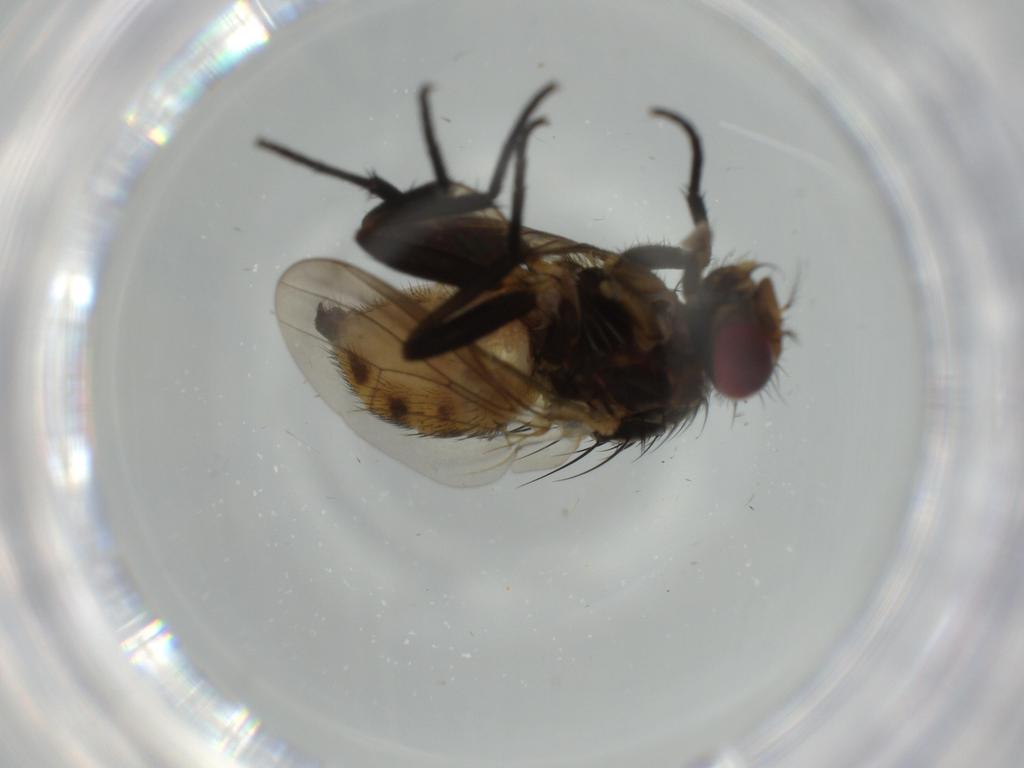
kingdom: Animalia
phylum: Arthropoda
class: Insecta
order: Diptera
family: Anthomyiidae
